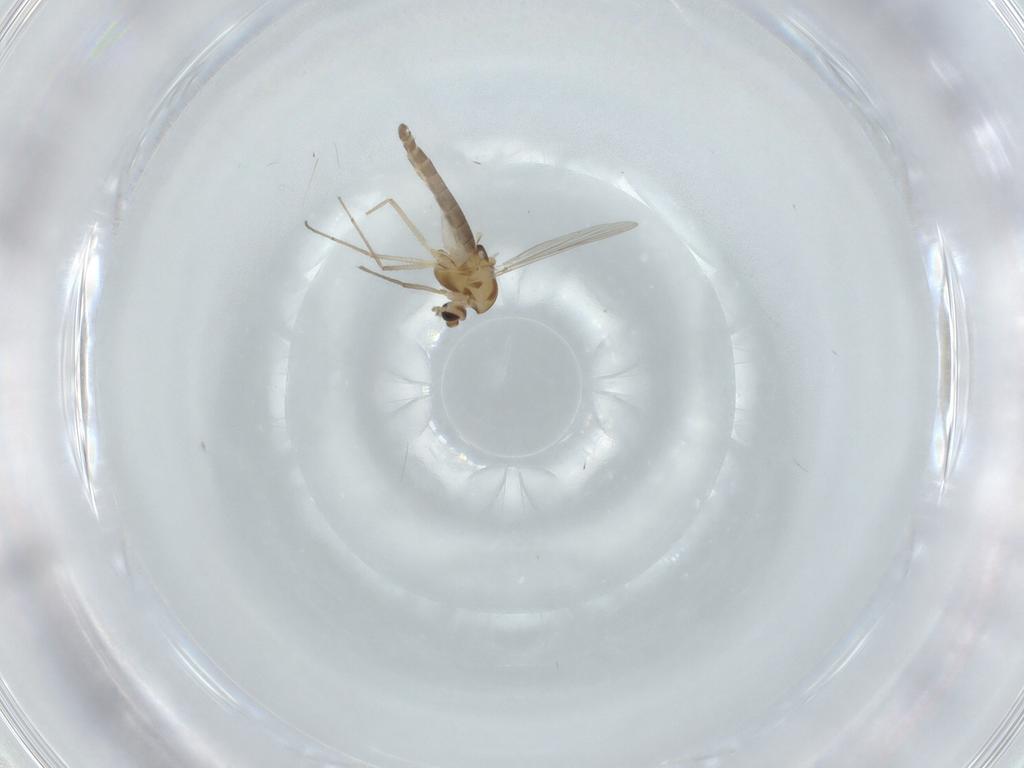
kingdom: Animalia
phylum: Arthropoda
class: Insecta
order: Diptera
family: Chironomidae
